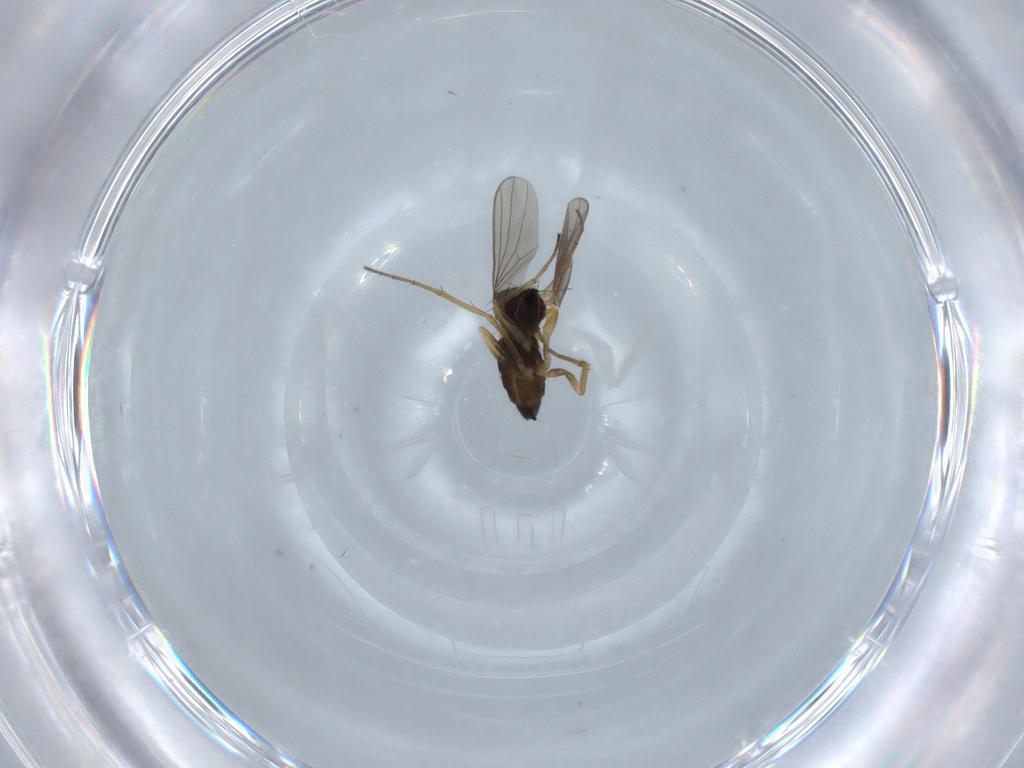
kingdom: Animalia
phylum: Arthropoda
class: Insecta
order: Diptera
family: Dolichopodidae
